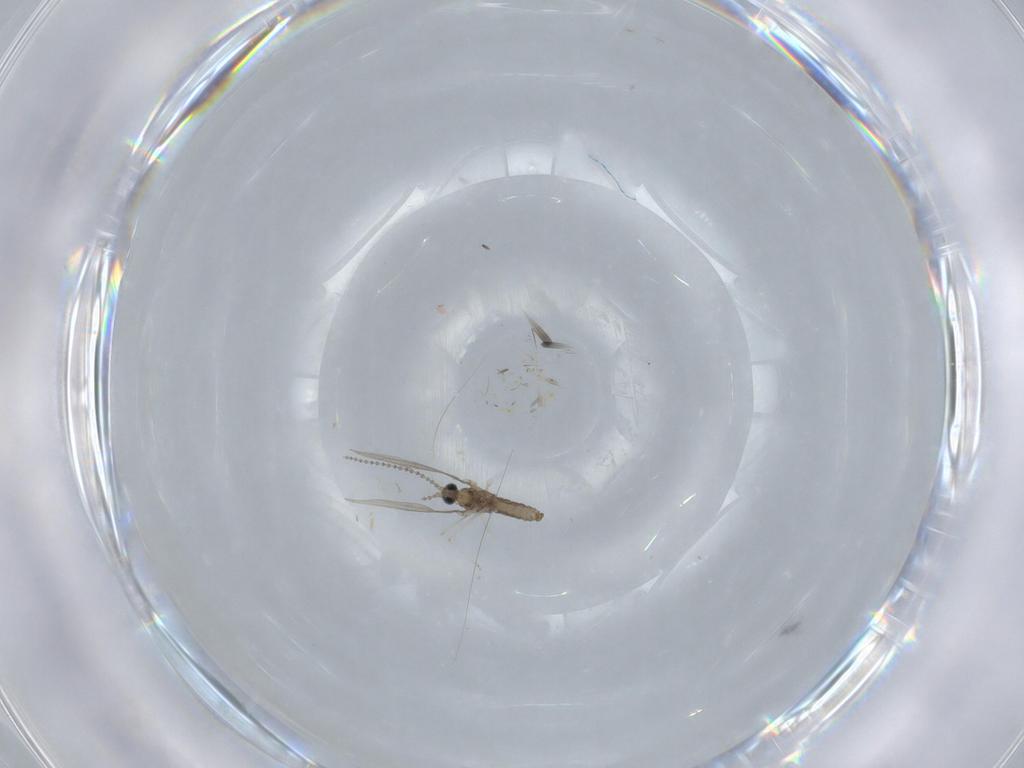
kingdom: Animalia
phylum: Arthropoda
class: Insecta
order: Diptera
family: Cecidomyiidae
